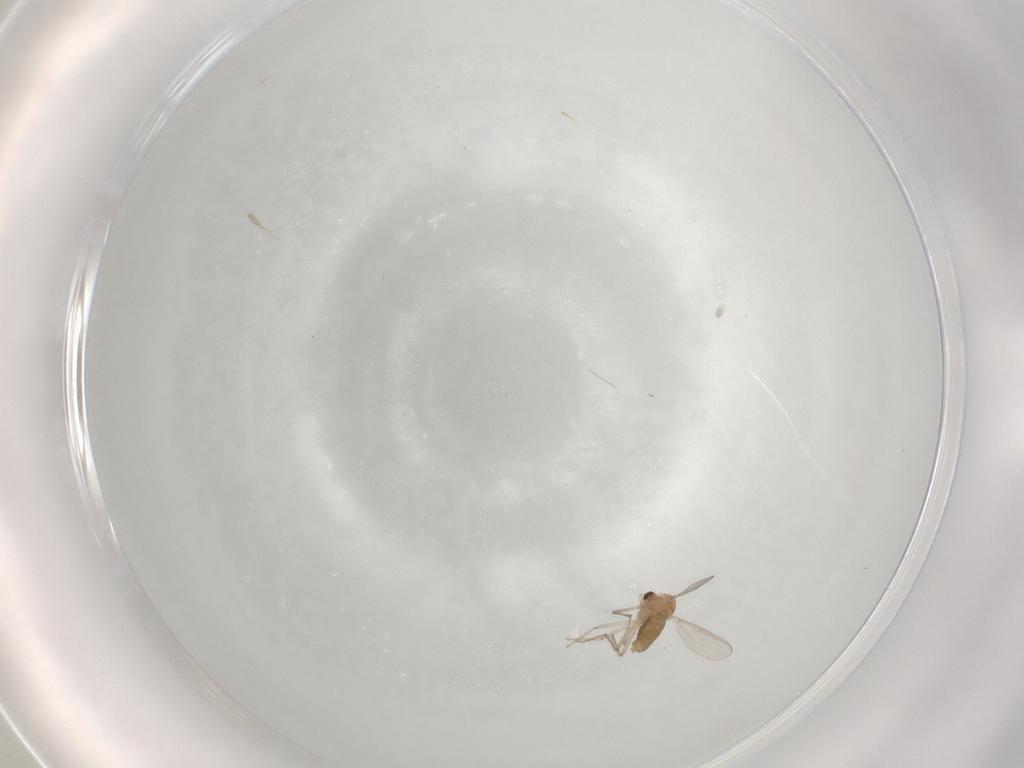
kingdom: Animalia
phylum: Arthropoda
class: Insecta
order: Diptera
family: Chironomidae
